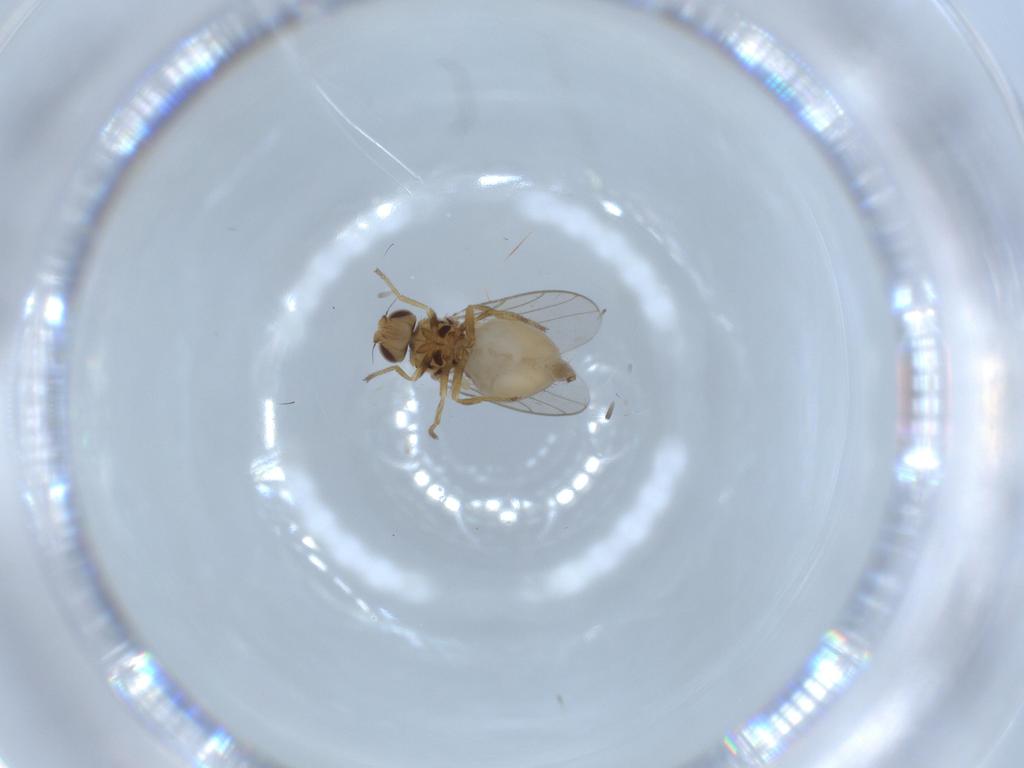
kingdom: Animalia
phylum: Arthropoda
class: Insecta
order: Diptera
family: Chloropidae
